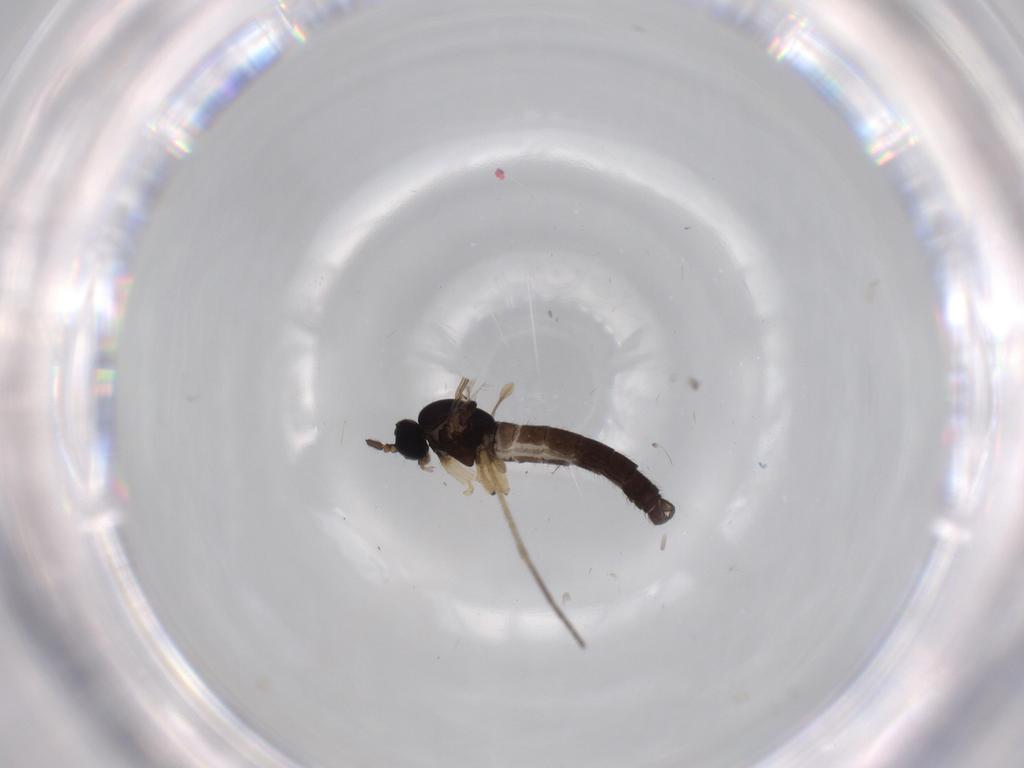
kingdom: Animalia
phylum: Arthropoda
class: Insecta
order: Diptera
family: Sciaridae
